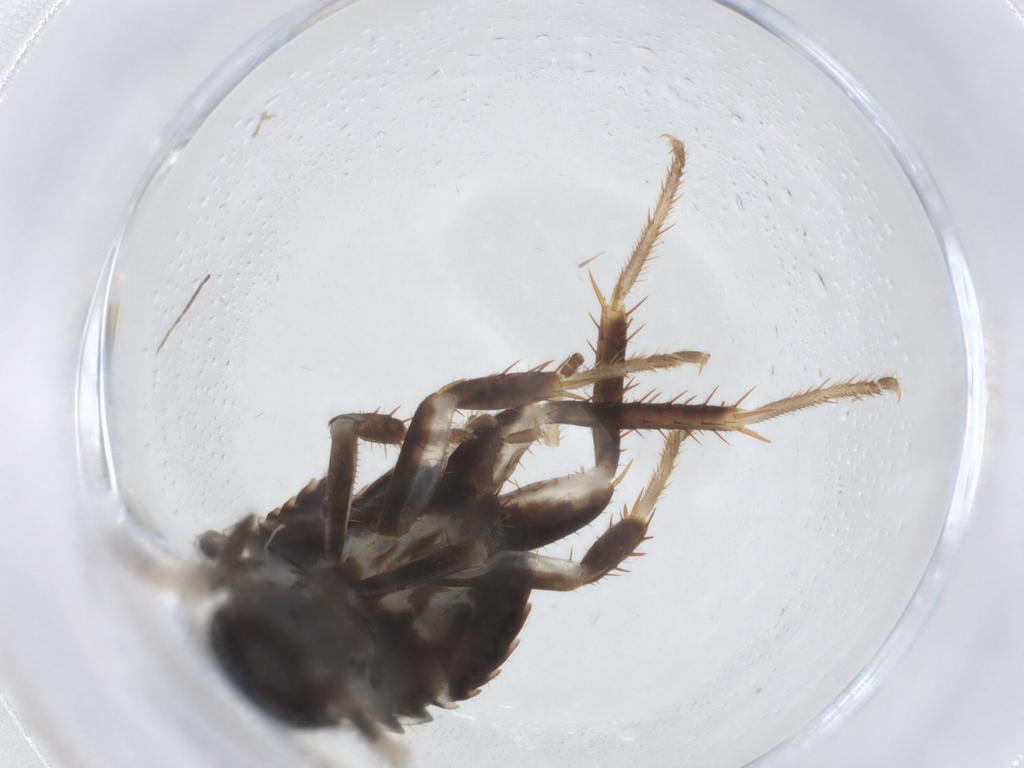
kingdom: Animalia
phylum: Arthropoda
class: Insecta
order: Blattodea
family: Ectobiidae
